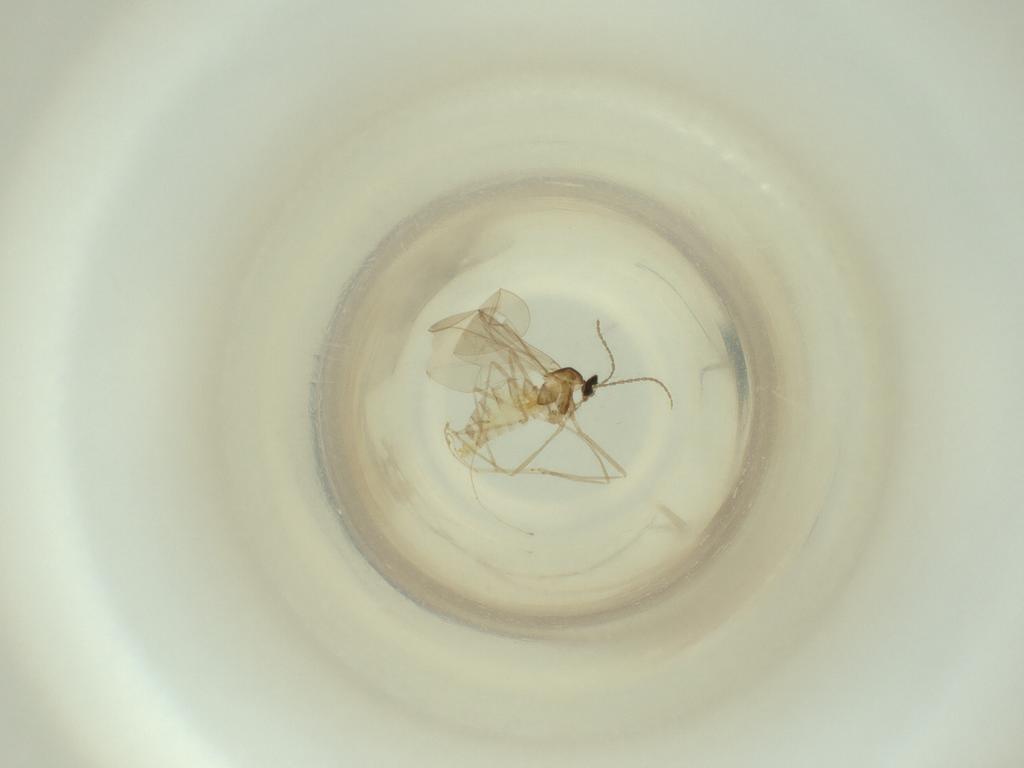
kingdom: Animalia
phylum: Arthropoda
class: Insecta
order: Diptera
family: Cecidomyiidae
